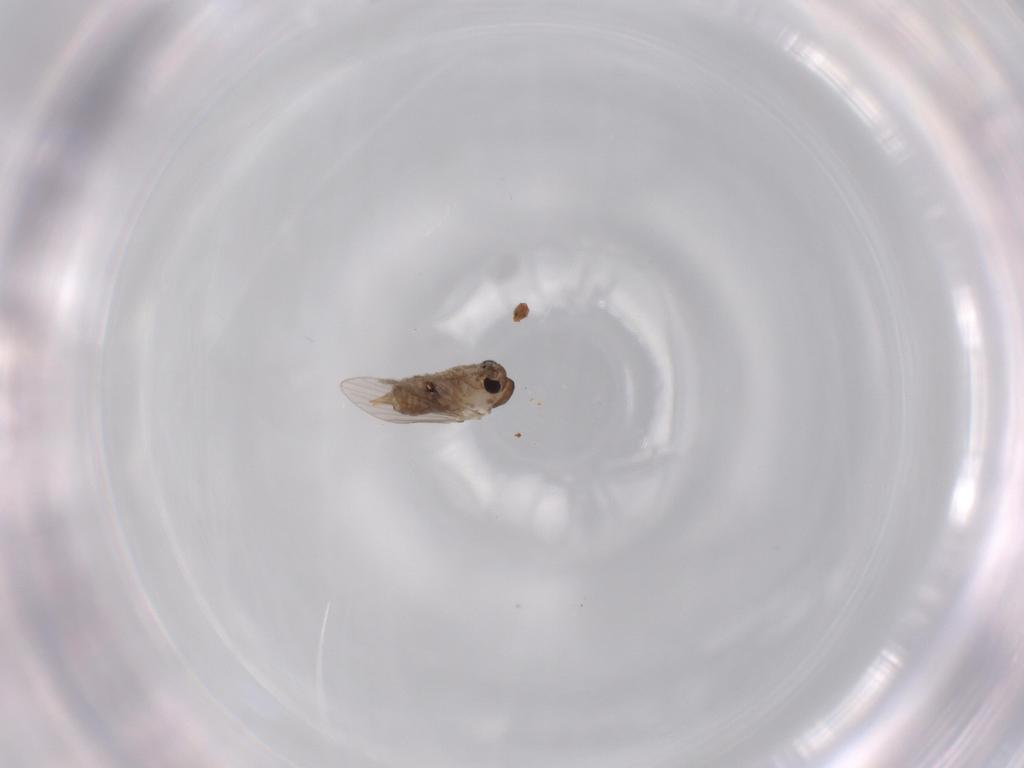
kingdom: Animalia
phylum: Arthropoda
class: Insecta
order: Diptera
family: Psychodidae
